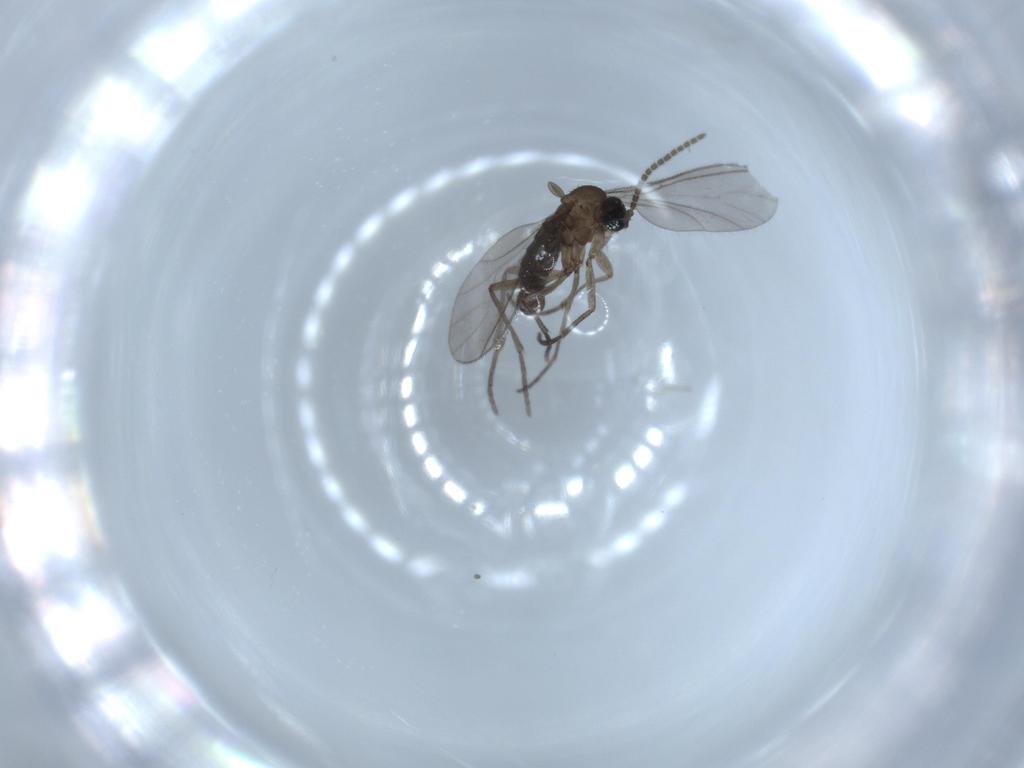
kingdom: Animalia
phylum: Arthropoda
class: Insecta
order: Diptera
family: Sciaridae
